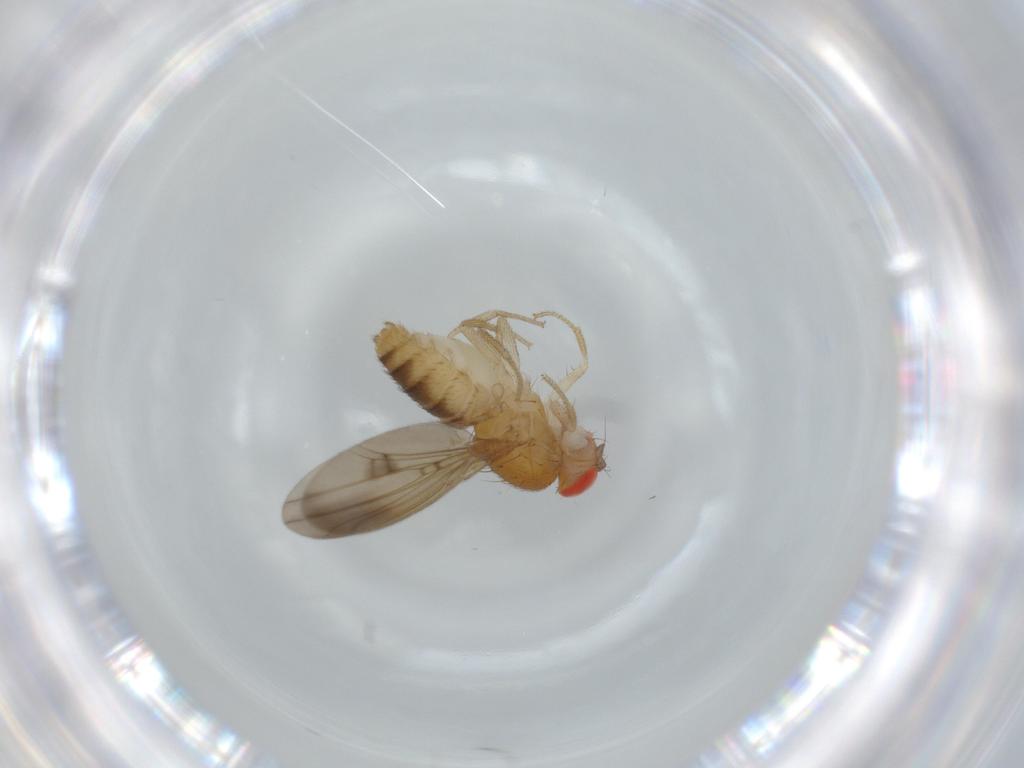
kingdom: Animalia
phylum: Arthropoda
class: Insecta
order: Diptera
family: Drosophilidae
